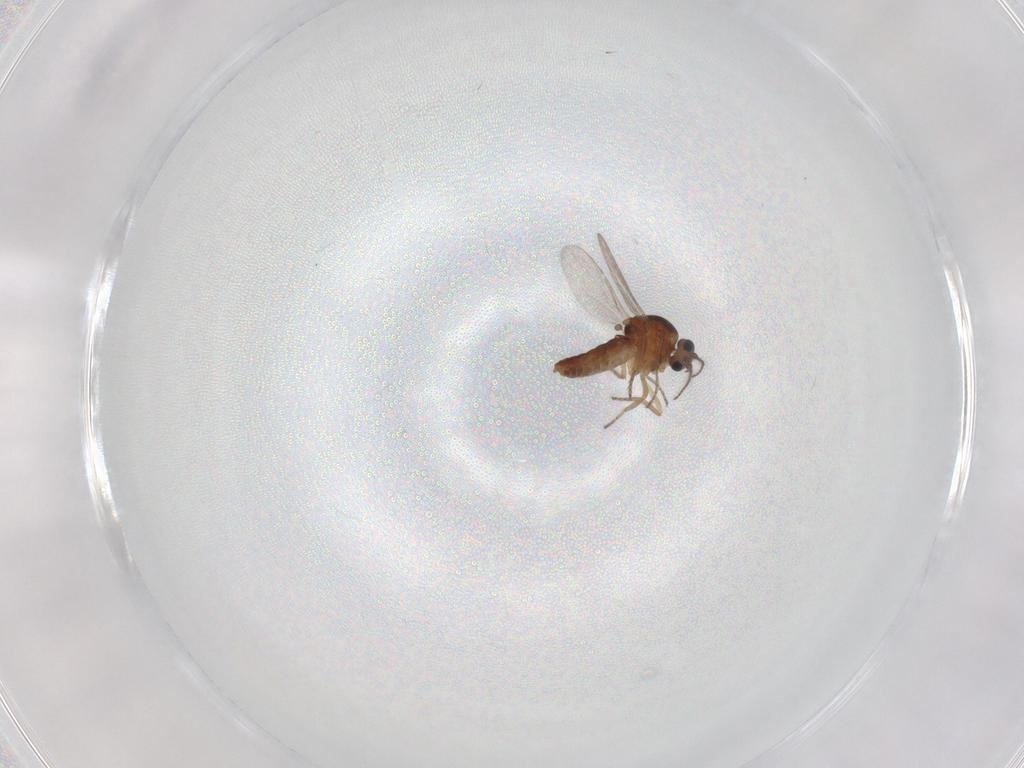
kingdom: Animalia
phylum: Arthropoda
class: Insecta
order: Diptera
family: Ceratopogonidae
